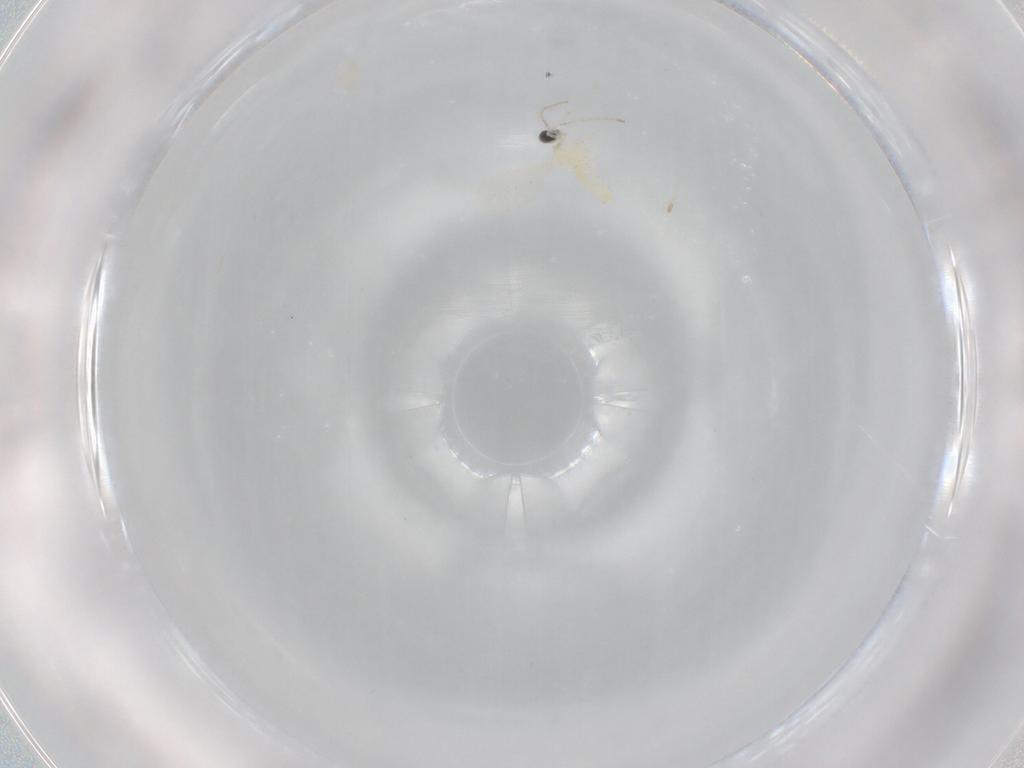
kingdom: Animalia
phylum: Arthropoda
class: Insecta
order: Diptera
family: Cecidomyiidae
